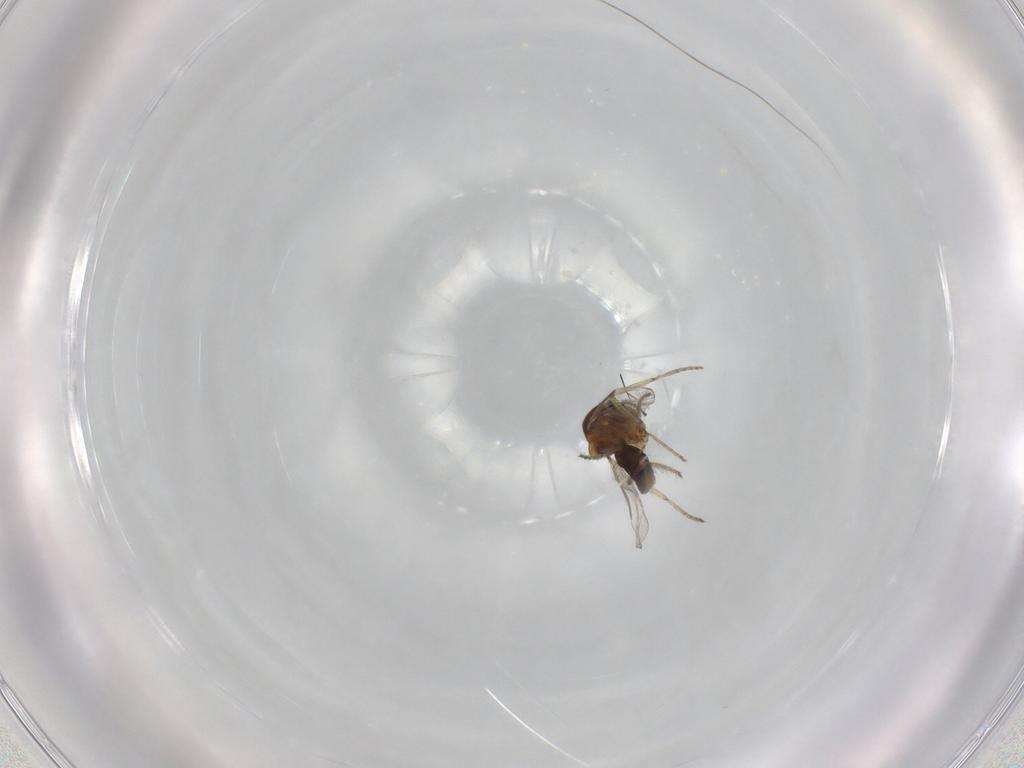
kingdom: Animalia
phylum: Arthropoda
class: Insecta
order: Diptera
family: Ceratopogonidae
